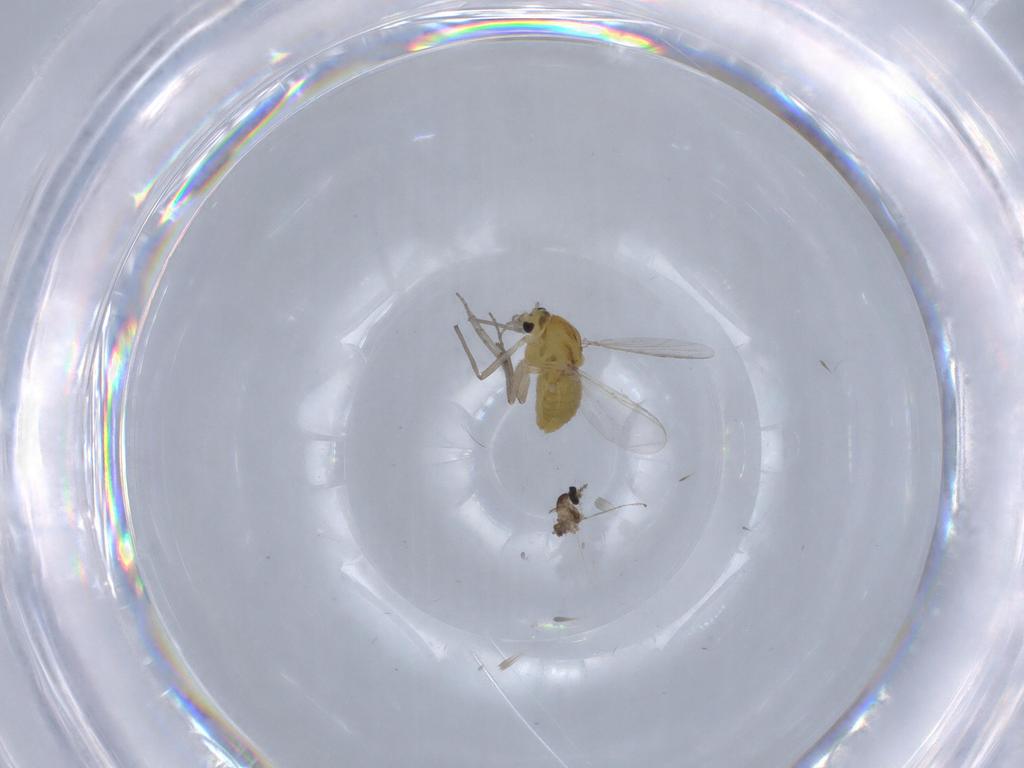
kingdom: Animalia
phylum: Arthropoda
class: Insecta
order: Diptera
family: Chironomidae
